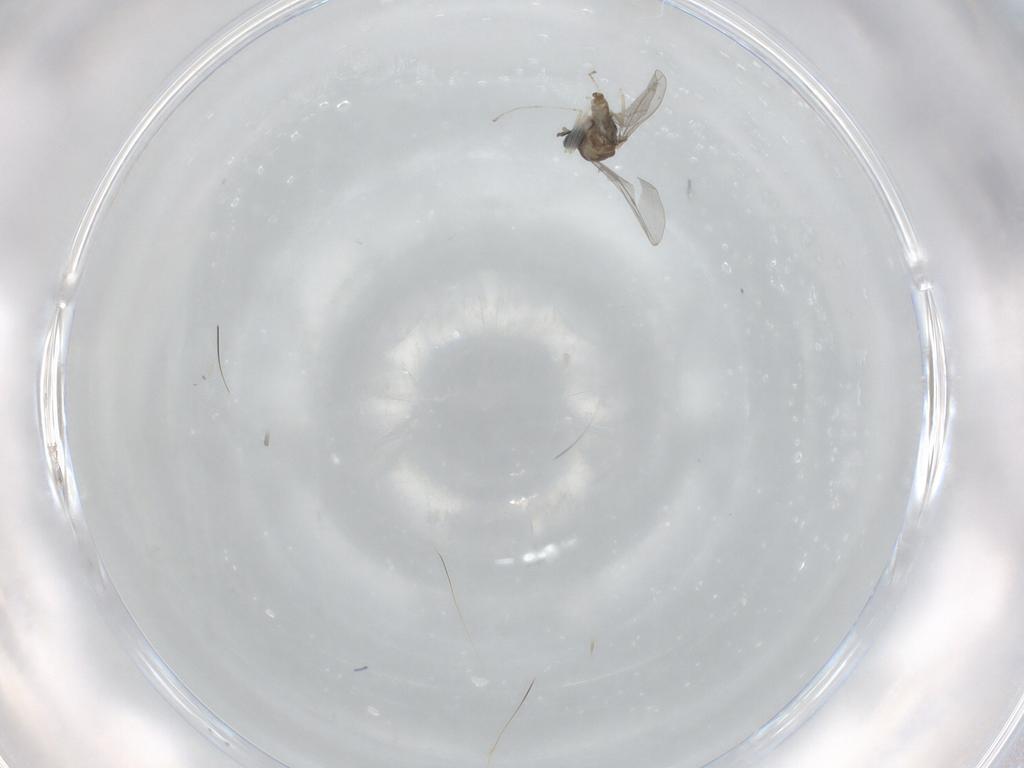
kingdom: Animalia
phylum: Arthropoda
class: Insecta
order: Diptera
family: Cecidomyiidae
